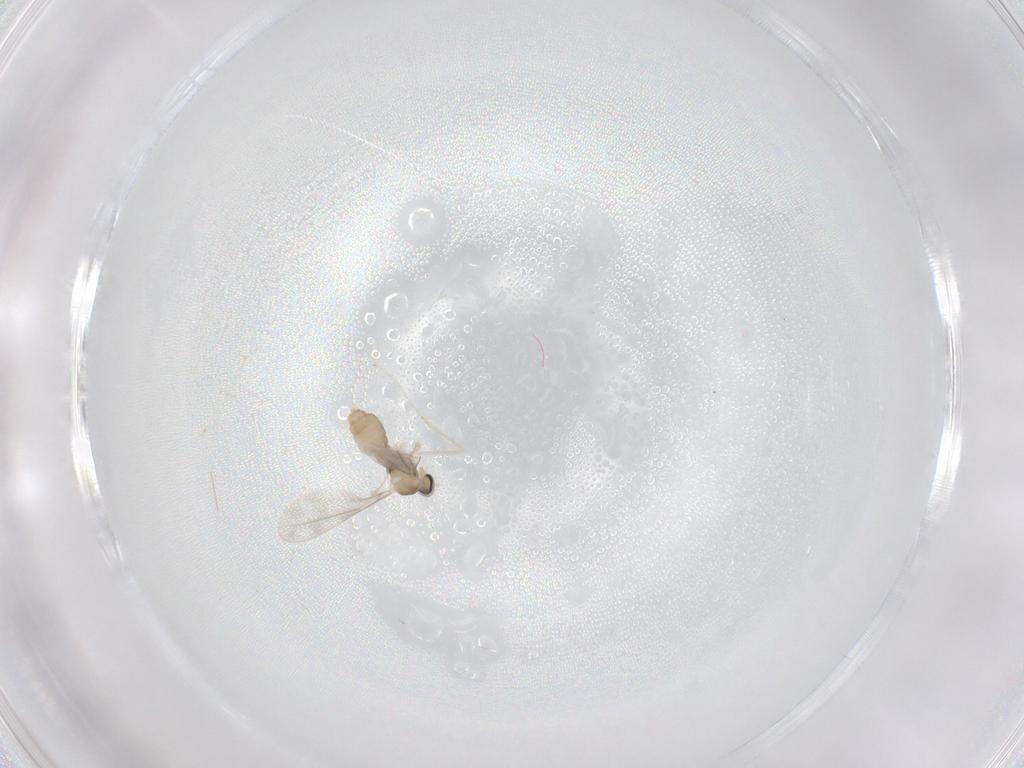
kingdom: Animalia
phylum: Arthropoda
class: Insecta
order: Diptera
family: Cecidomyiidae
